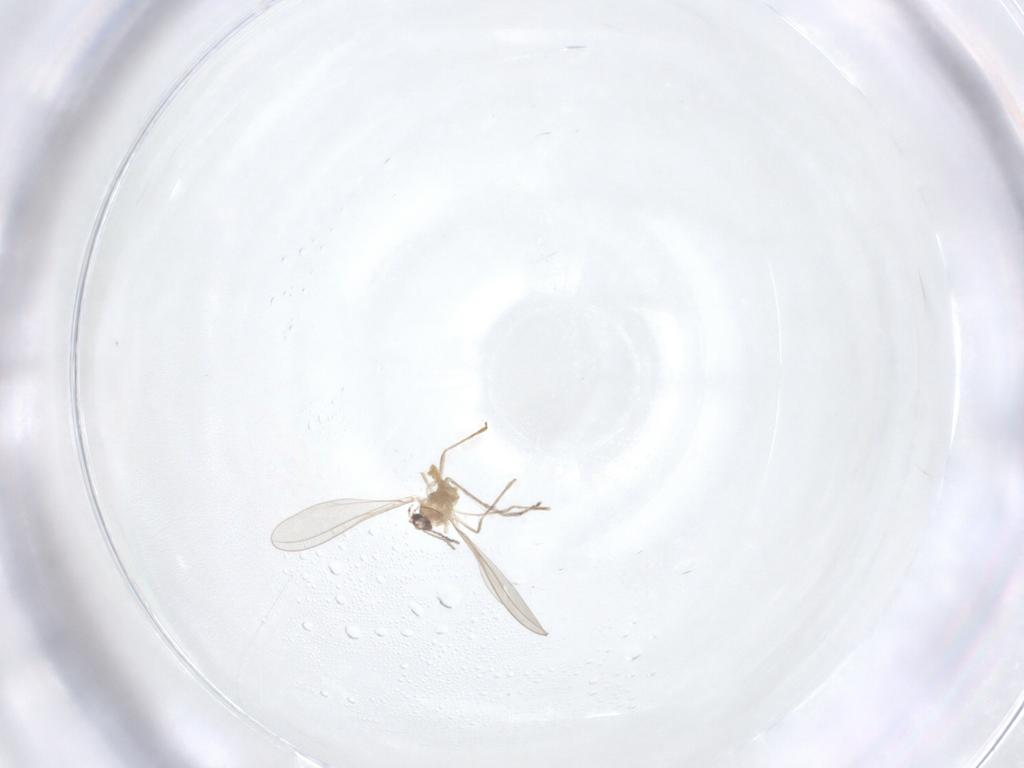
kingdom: Animalia
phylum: Arthropoda
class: Insecta
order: Diptera
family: Cecidomyiidae
